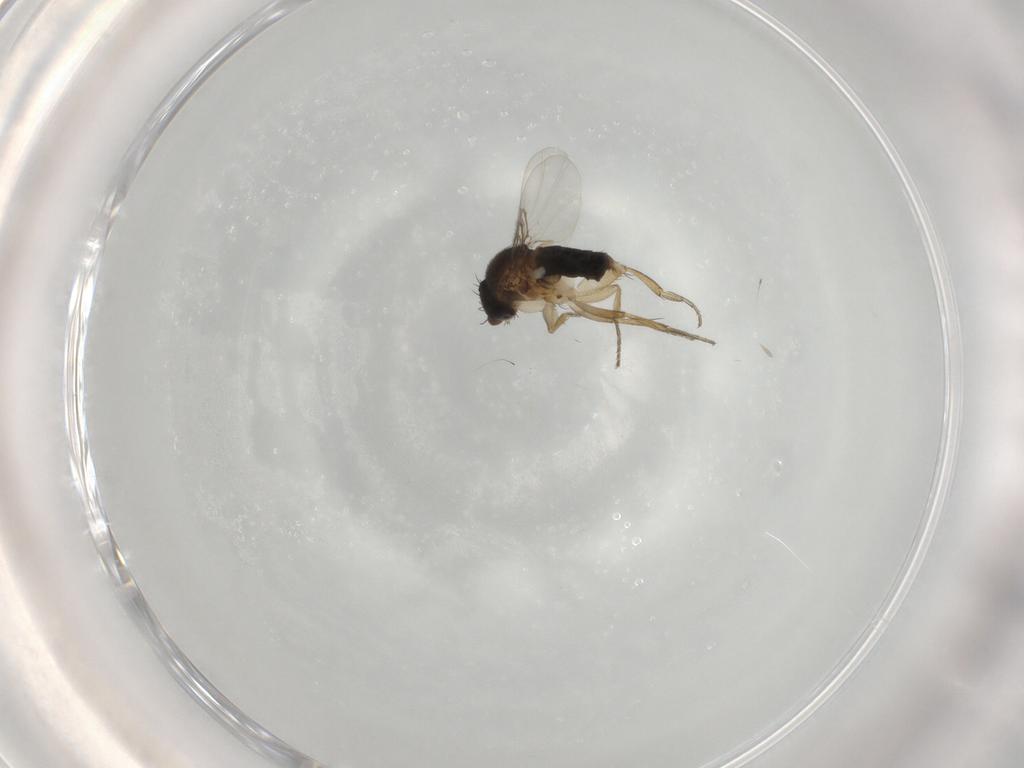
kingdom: Animalia
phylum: Arthropoda
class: Insecta
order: Diptera
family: Phoridae
